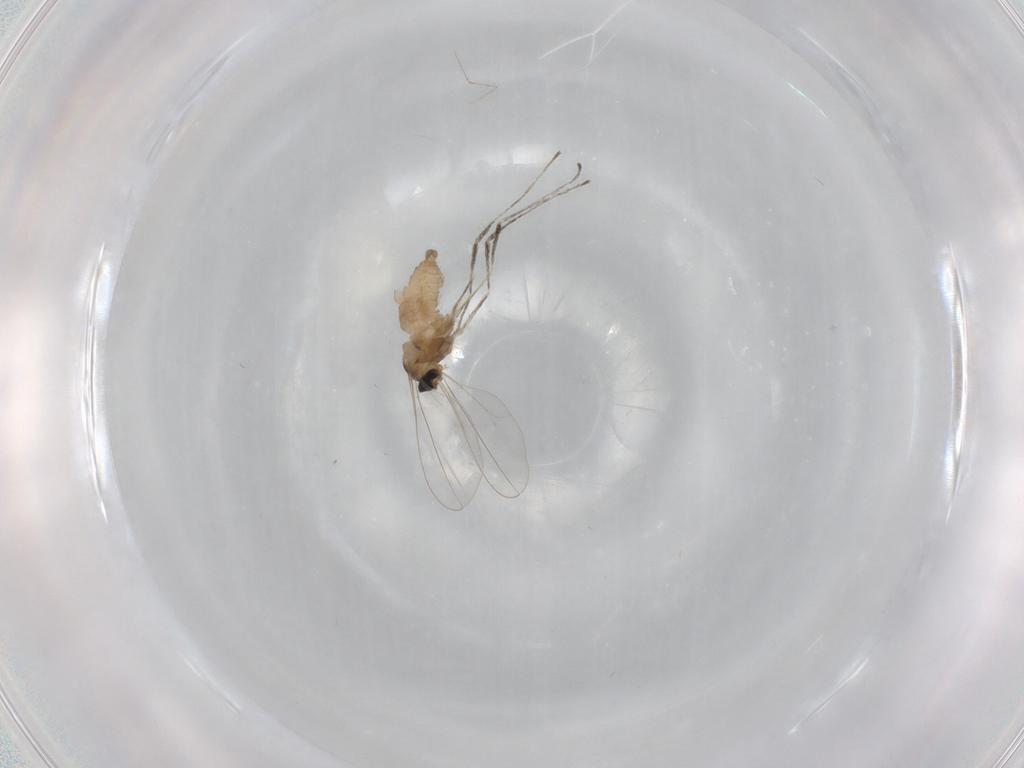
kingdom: Animalia
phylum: Arthropoda
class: Insecta
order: Diptera
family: Cecidomyiidae
